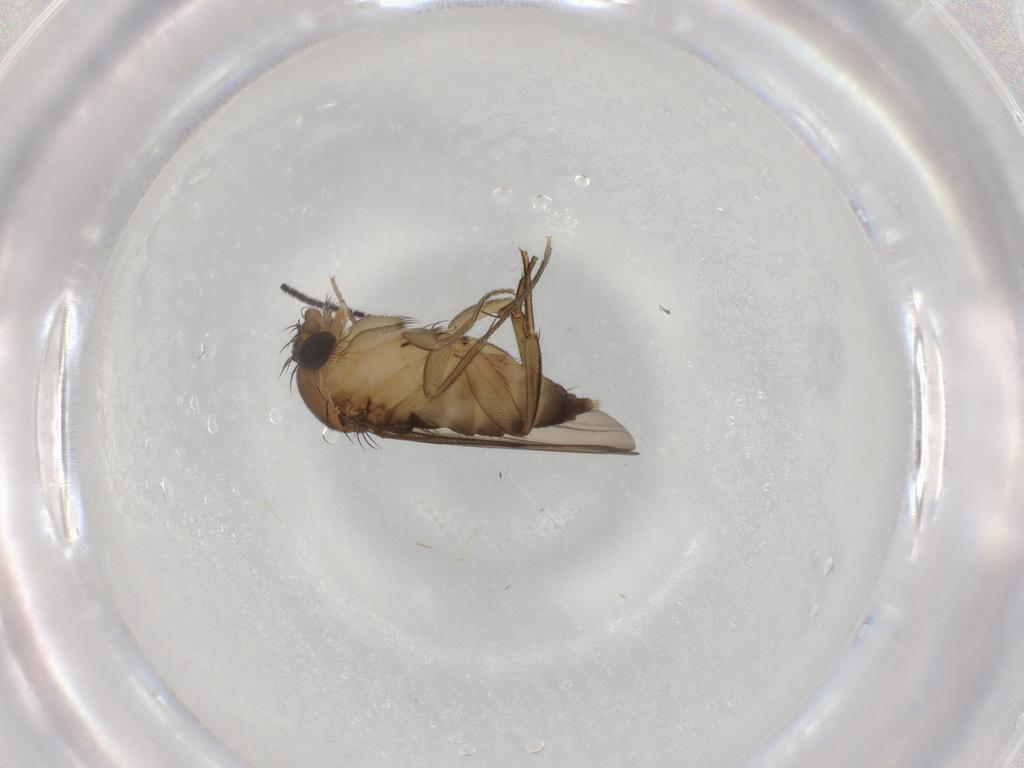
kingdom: Animalia
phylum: Arthropoda
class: Insecta
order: Diptera
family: Phoridae
